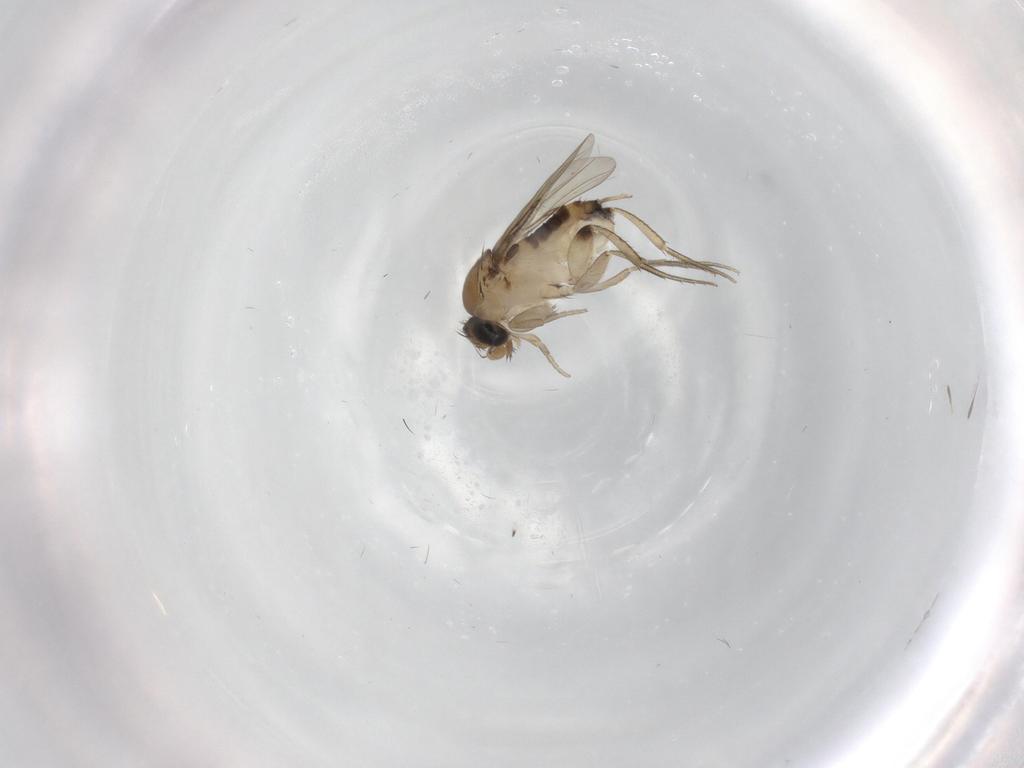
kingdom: Animalia
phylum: Arthropoda
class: Insecta
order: Diptera
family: Phoridae
